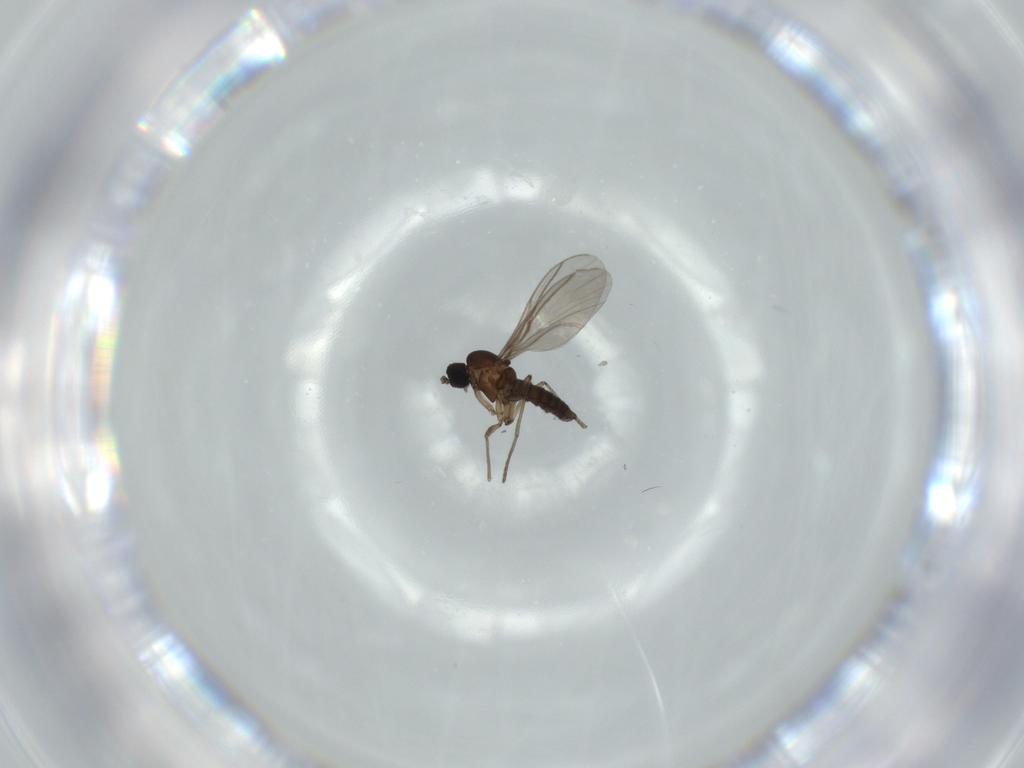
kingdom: Animalia
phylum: Arthropoda
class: Insecta
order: Diptera
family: Sciaridae
